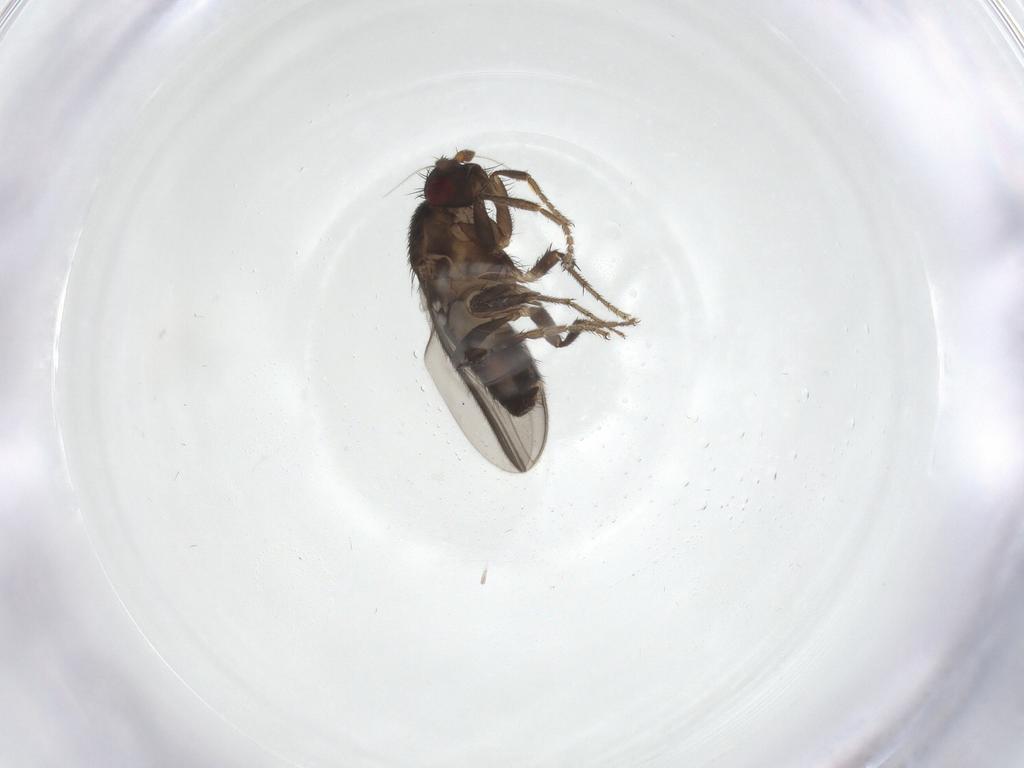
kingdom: Animalia
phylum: Arthropoda
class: Insecta
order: Diptera
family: Sphaeroceridae
